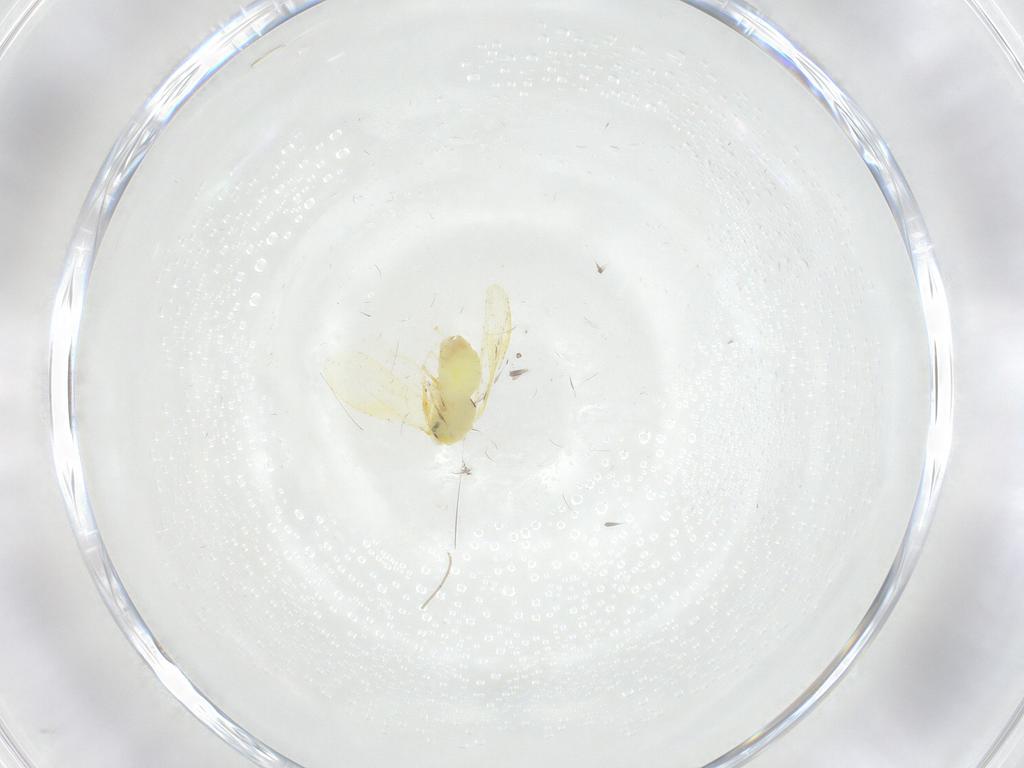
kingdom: Animalia
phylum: Arthropoda
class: Insecta
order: Hemiptera
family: Aleyrodidae
